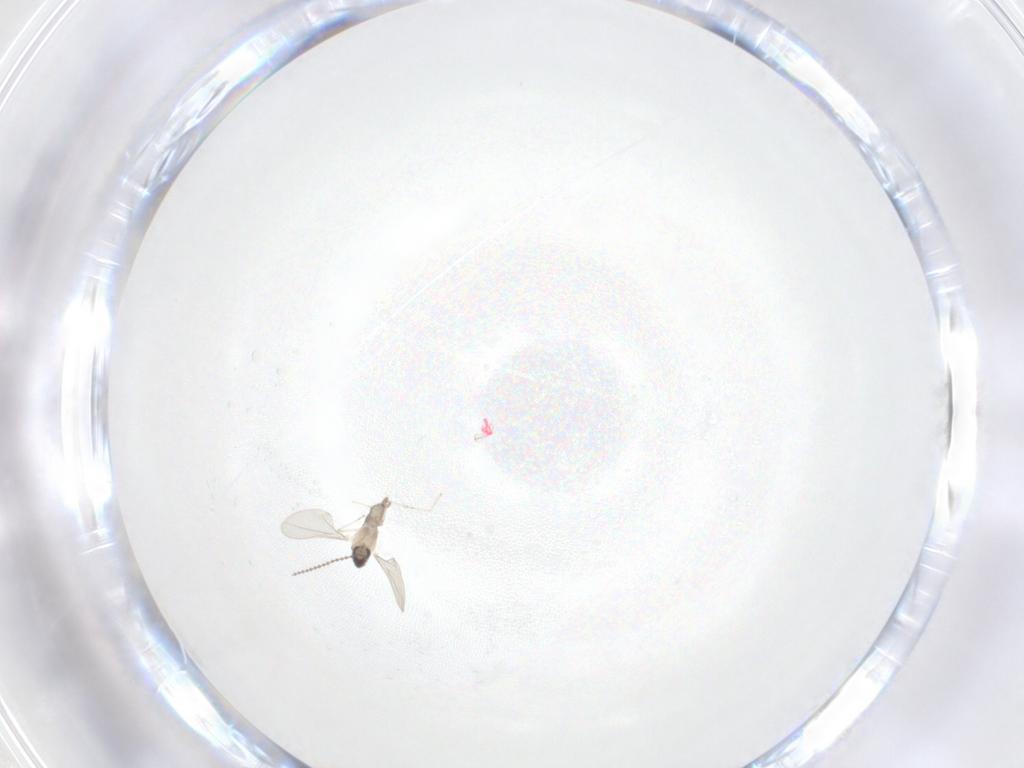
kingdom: Animalia
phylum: Arthropoda
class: Insecta
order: Diptera
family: Cecidomyiidae
